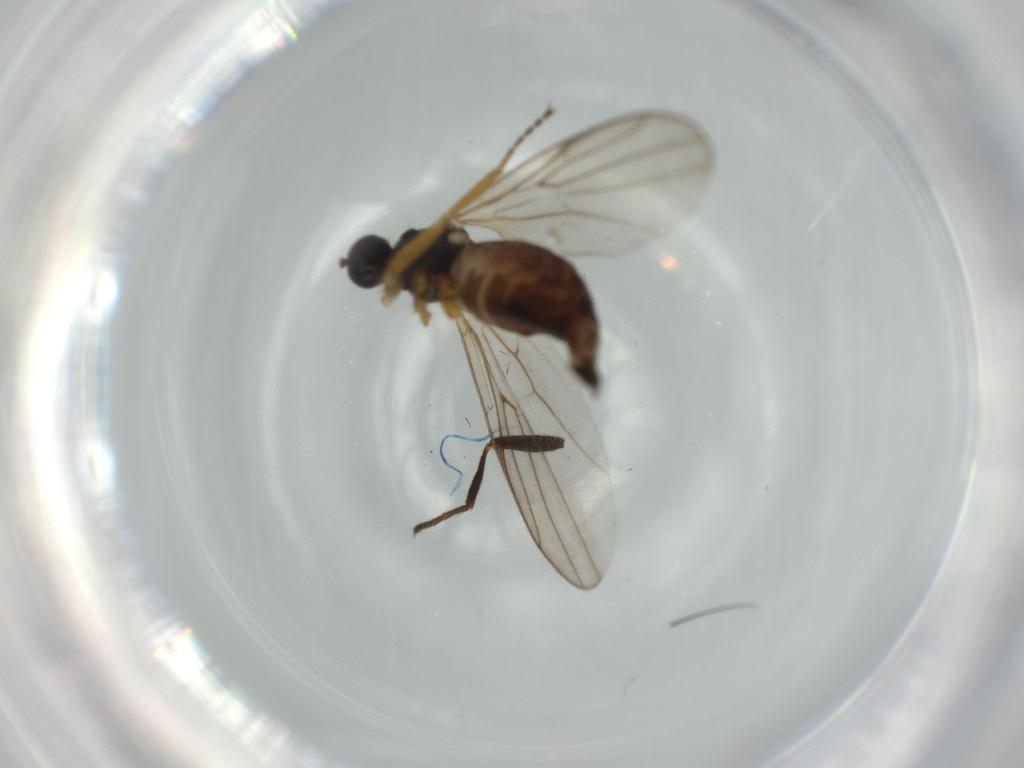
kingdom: Animalia
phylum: Arthropoda
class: Insecta
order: Diptera
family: Hybotidae
